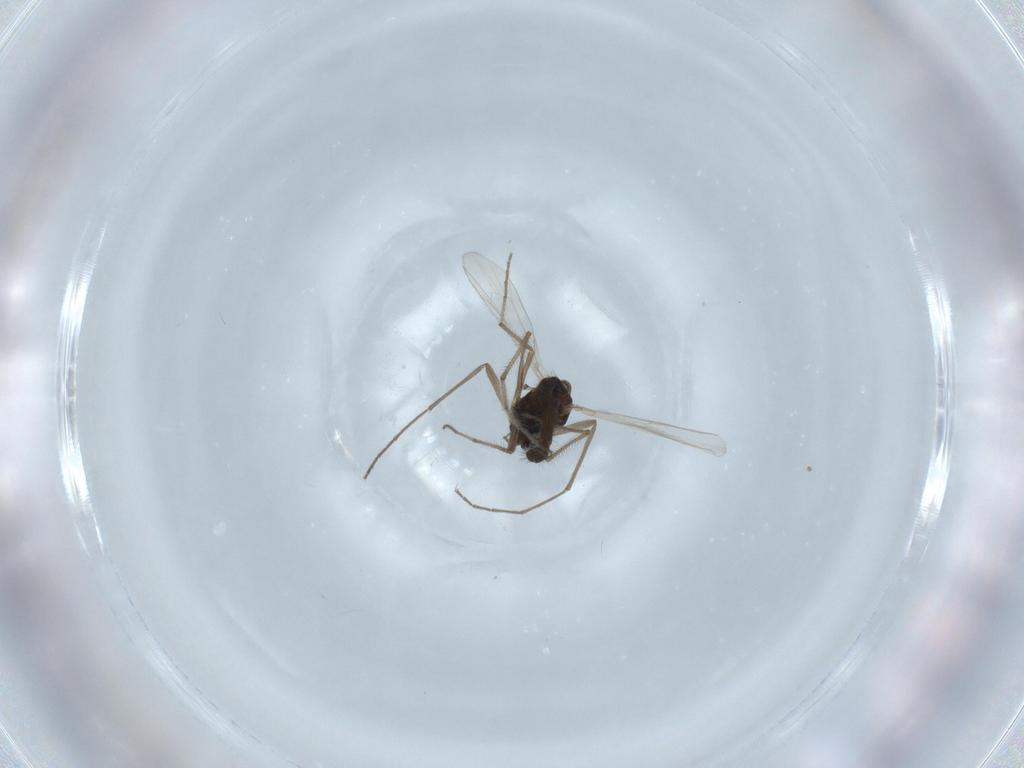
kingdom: Animalia
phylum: Arthropoda
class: Insecta
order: Diptera
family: Chironomidae
